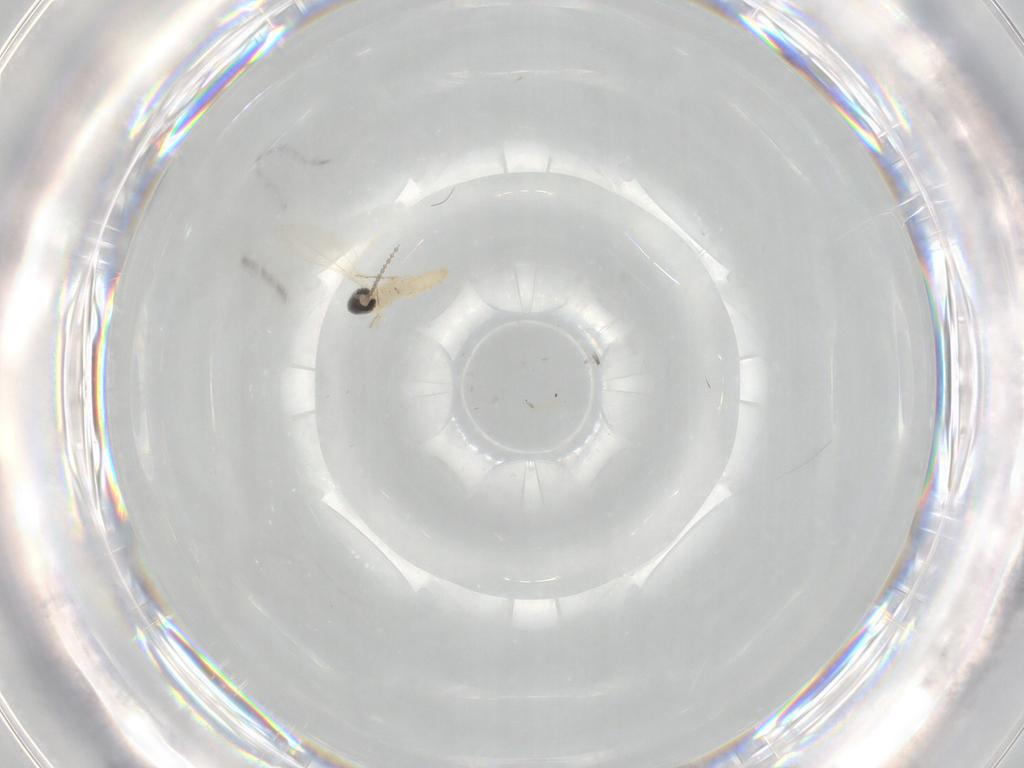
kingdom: Animalia
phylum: Arthropoda
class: Insecta
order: Diptera
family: Cecidomyiidae
